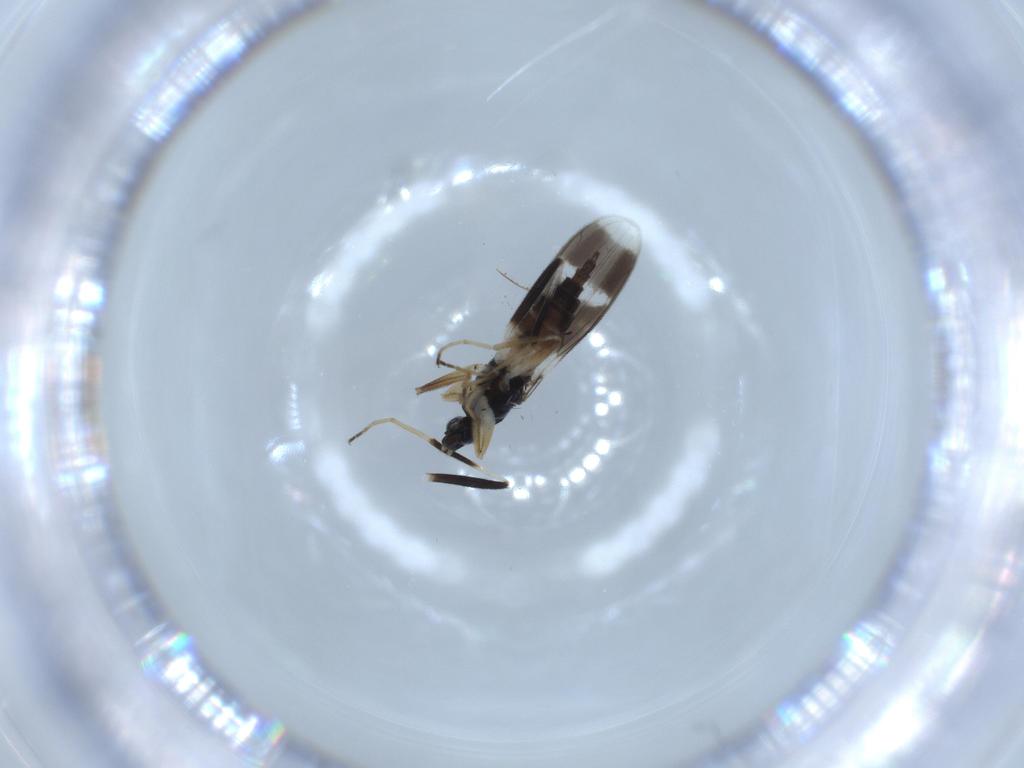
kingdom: Animalia
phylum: Arthropoda
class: Insecta
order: Diptera
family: Hybotidae
